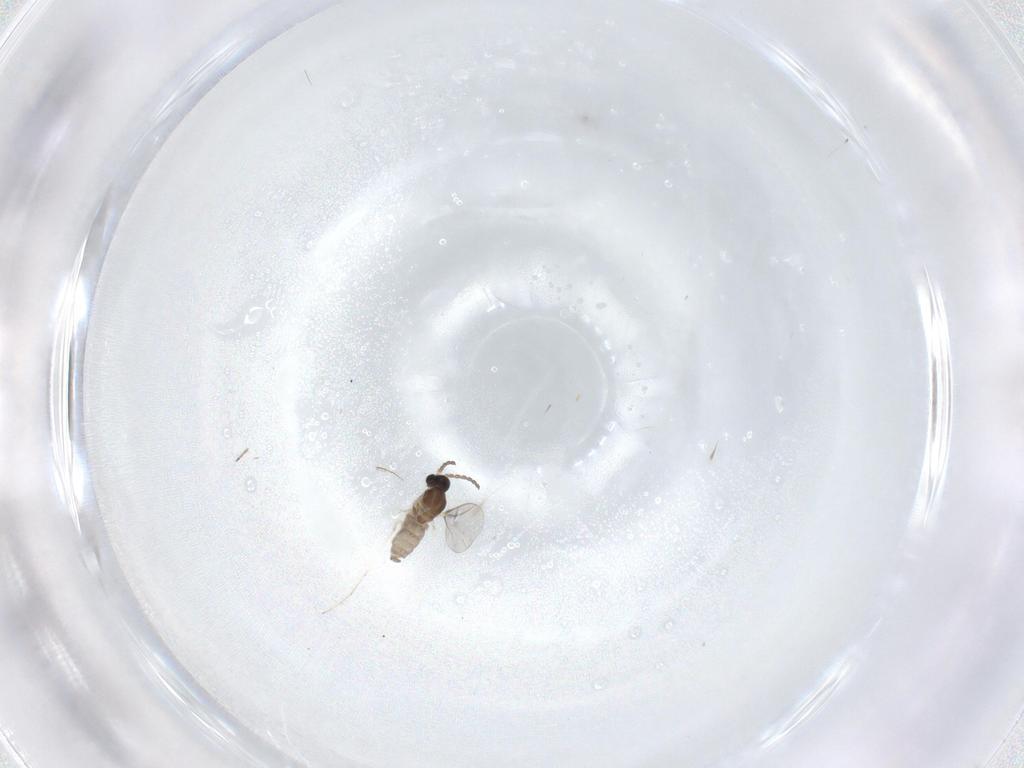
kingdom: Animalia
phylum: Arthropoda
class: Insecta
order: Diptera
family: Cecidomyiidae
